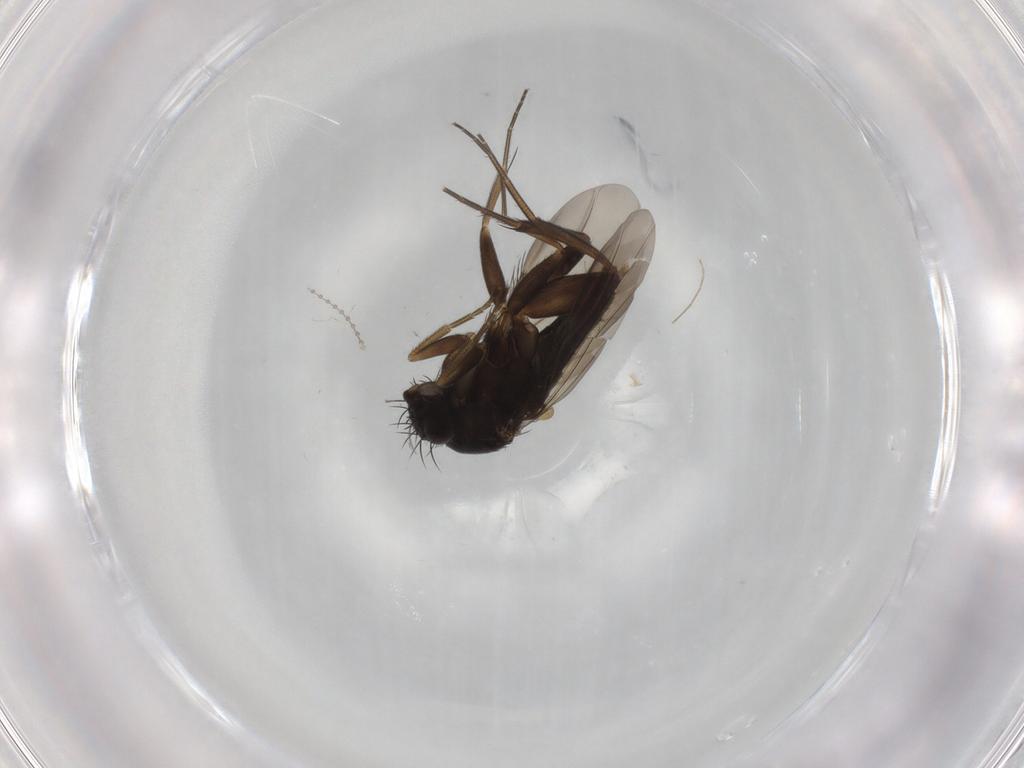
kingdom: Animalia
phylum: Arthropoda
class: Insecta
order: Diptera
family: Phoridae
